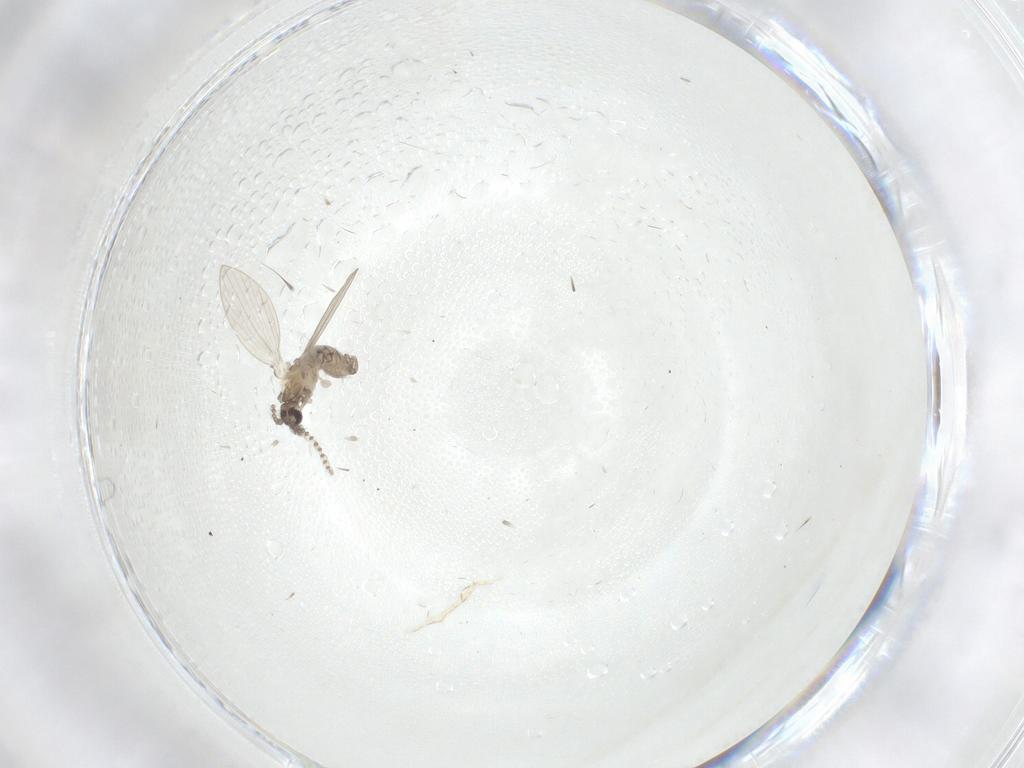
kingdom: Animalia
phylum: Arthropoda
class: Insecta
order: Diptera
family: Psychodidae
